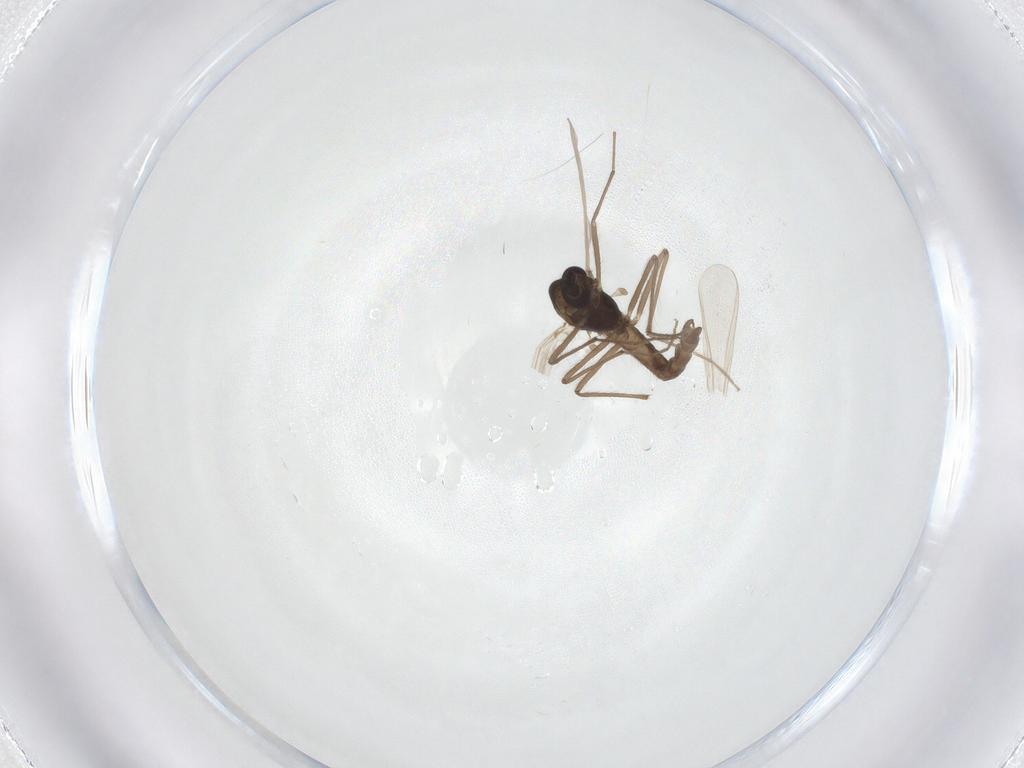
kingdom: Animalia
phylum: Arthropoda
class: Insecta
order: Diptera
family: Chironomidae
